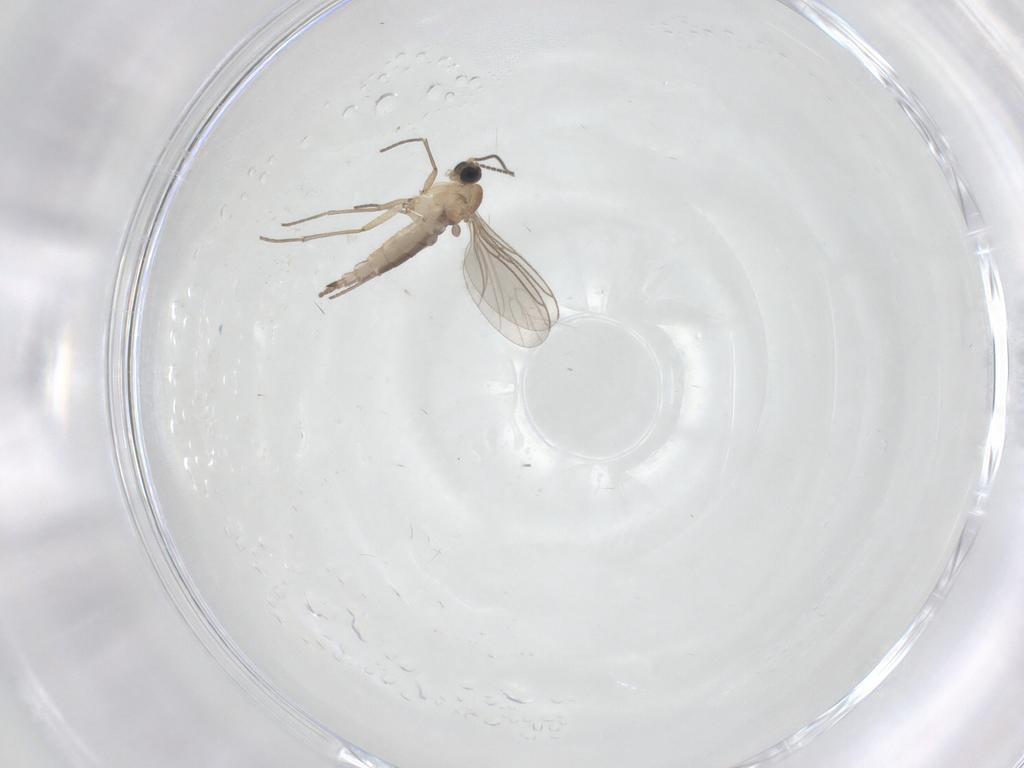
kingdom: Animalia
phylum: Arthropoda
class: Insecta
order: Diptera
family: Sciaridae
